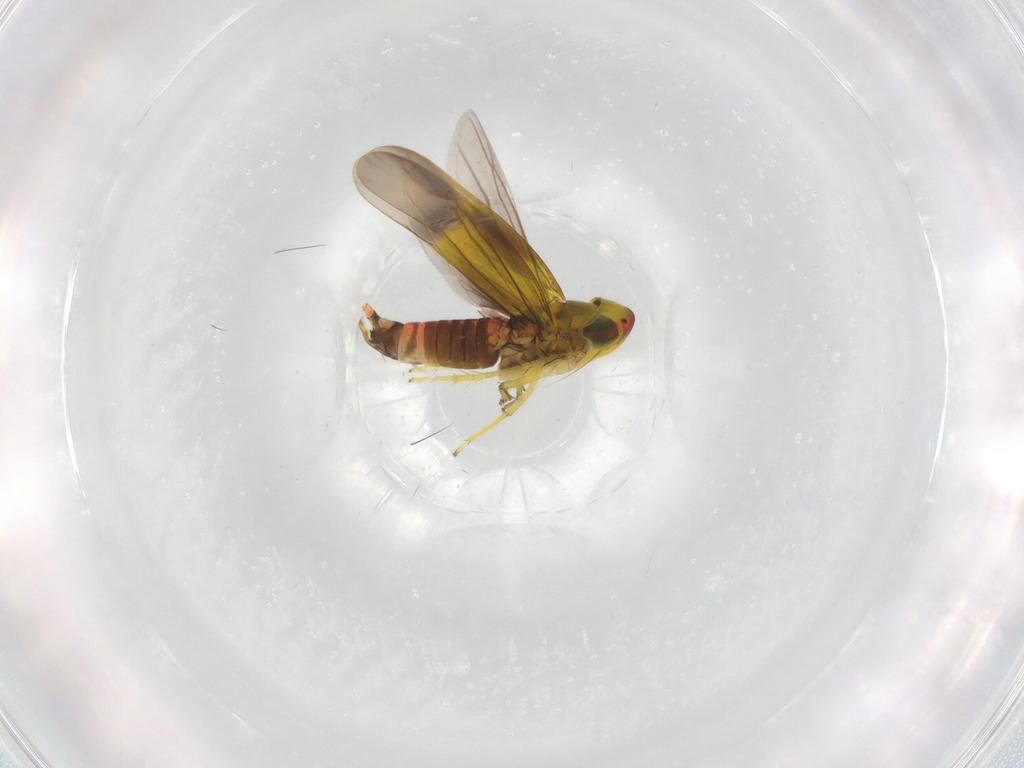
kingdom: Animalia
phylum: Arthropoda
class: Insecta
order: Hemiptera
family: Cicadellidae
